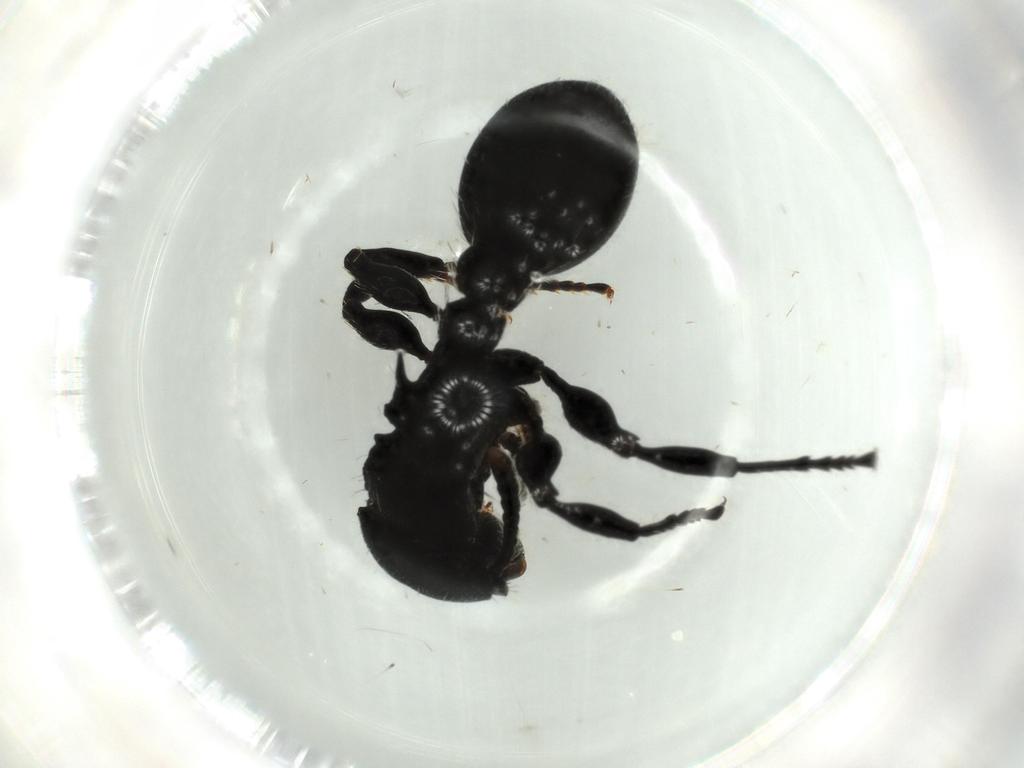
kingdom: Animalia
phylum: Arthropoda
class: Insecta
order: Hymenoptera
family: Formicidae
